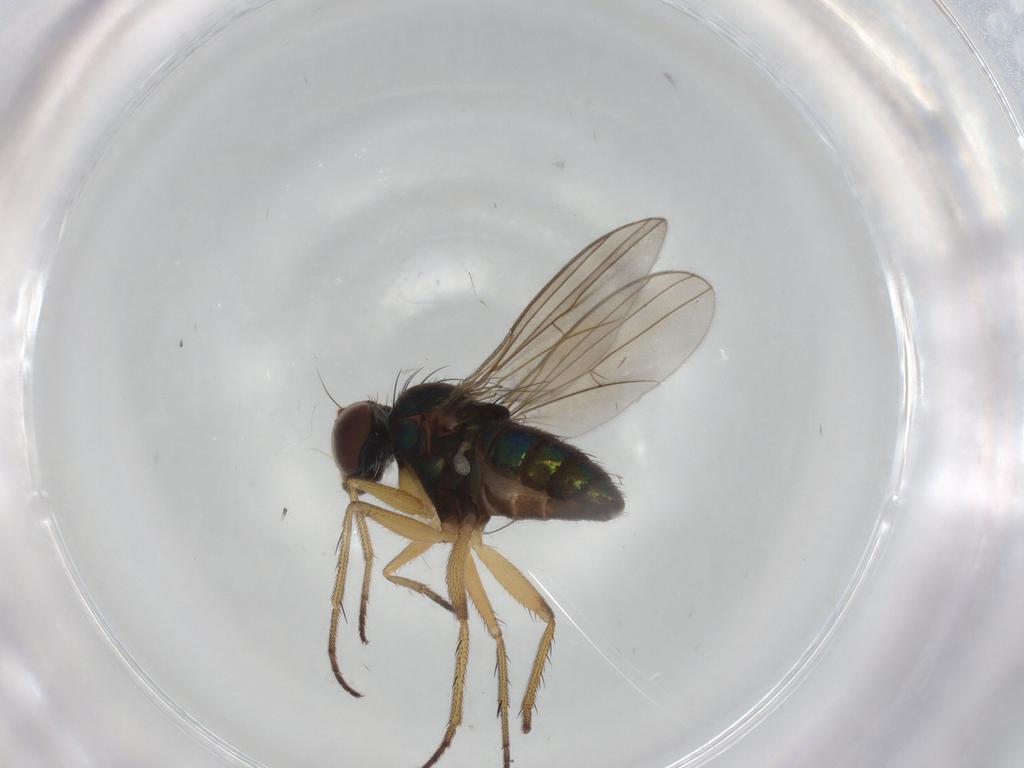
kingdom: Animalia
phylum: Arthropoda
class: Insecta
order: Diptera
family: Dolichopodidae
